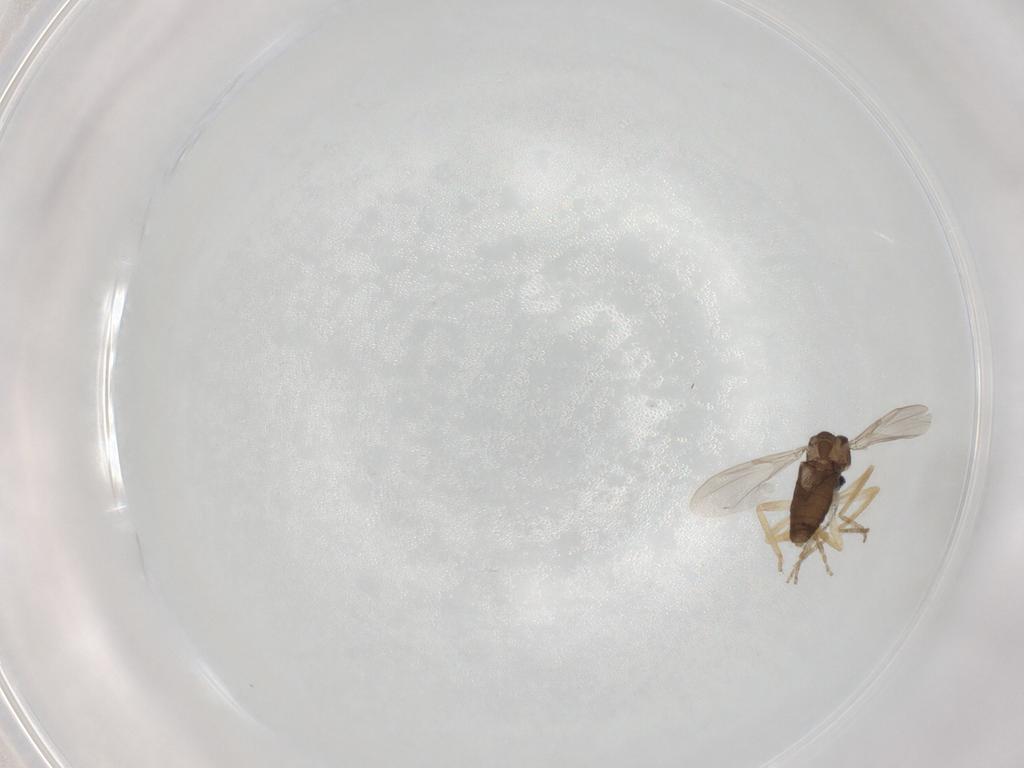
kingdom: Animalia
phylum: Arthropoda
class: Insecta
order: Diptera
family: Ceratopogonidae
